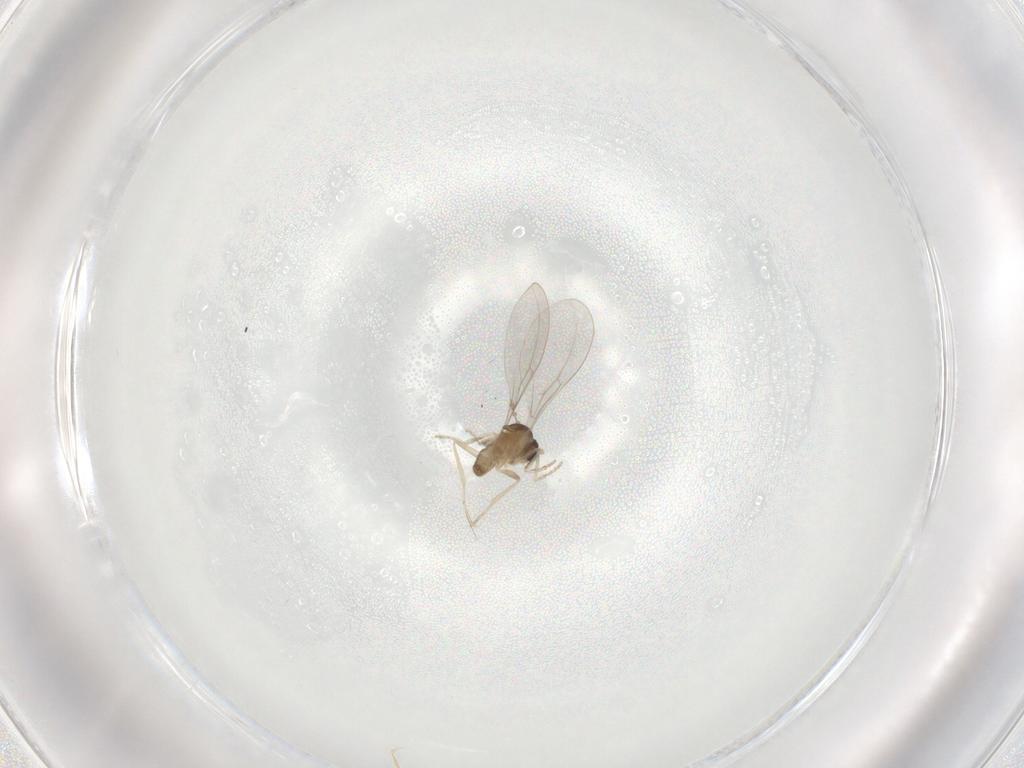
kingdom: Animalia
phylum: Arthropoda
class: Insecta
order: Diptera
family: Cecidomyiidae
